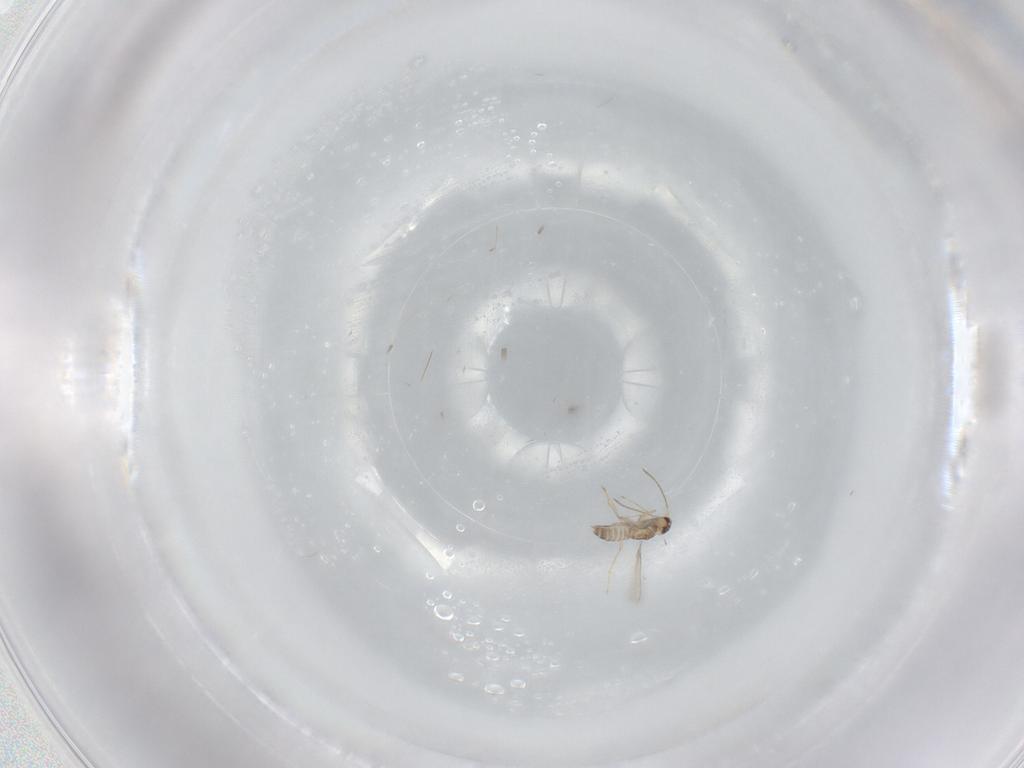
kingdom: Animalia
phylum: Arthropoda
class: Insecta
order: Hymenoptera
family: Mymaridae
